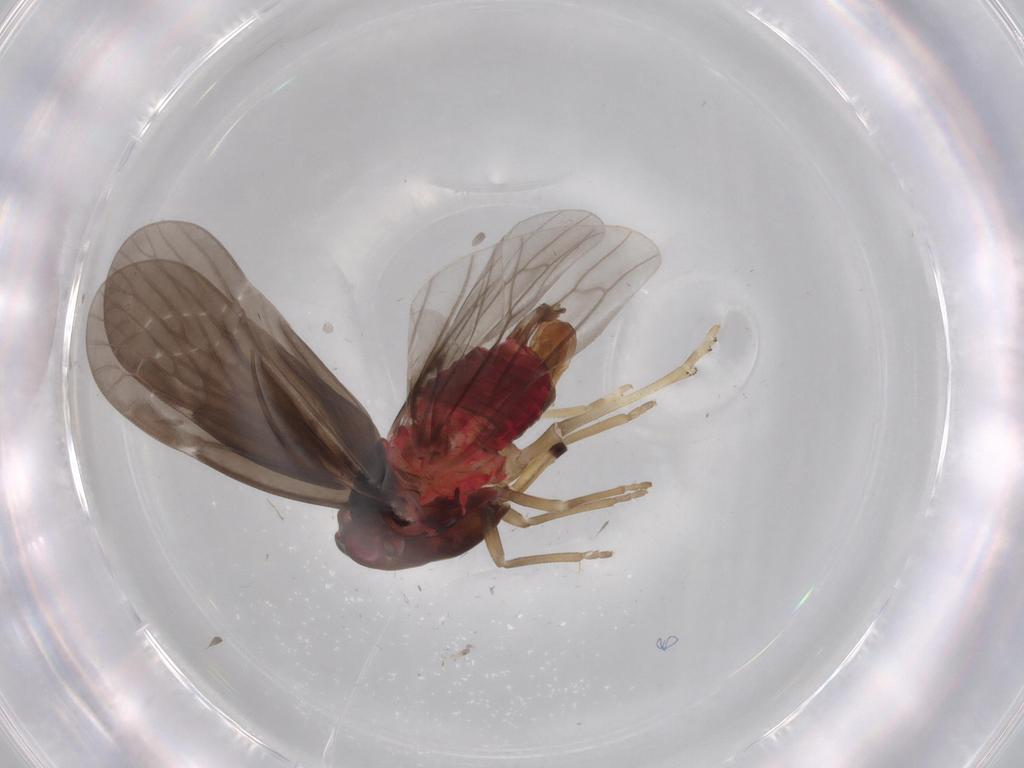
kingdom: Animalia
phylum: Arthropoda
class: Insecta
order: Hemiptera
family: Derbidae
